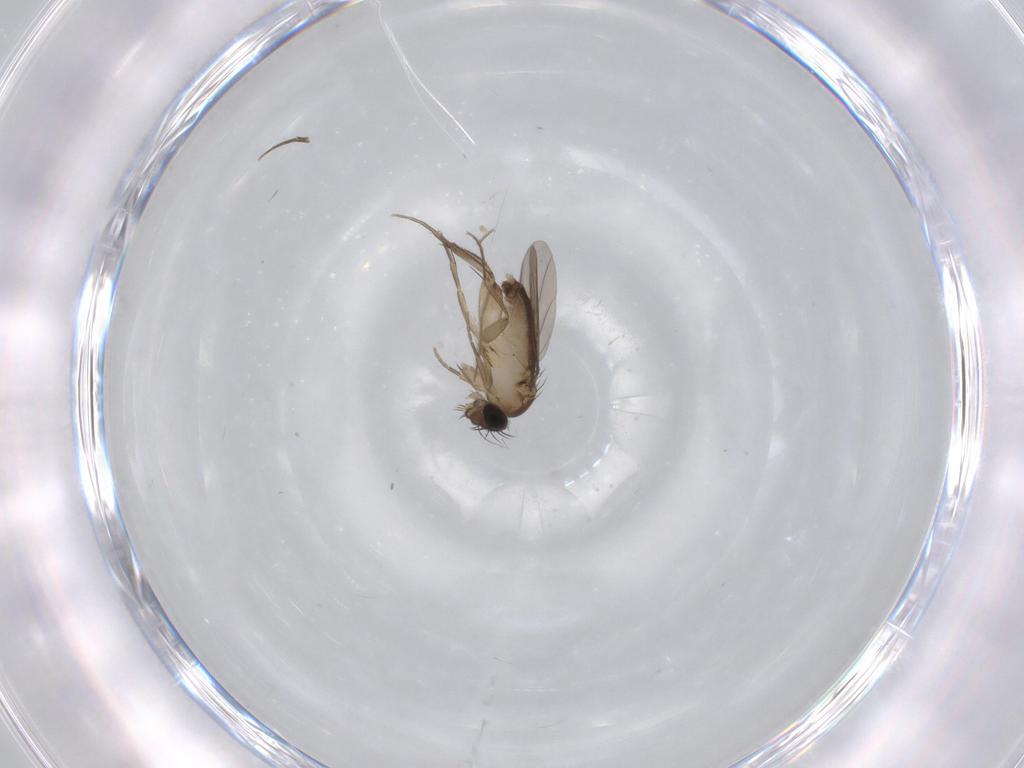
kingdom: Animalia
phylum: Arthropoda
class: Insecta
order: Diptera
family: Phoridae
